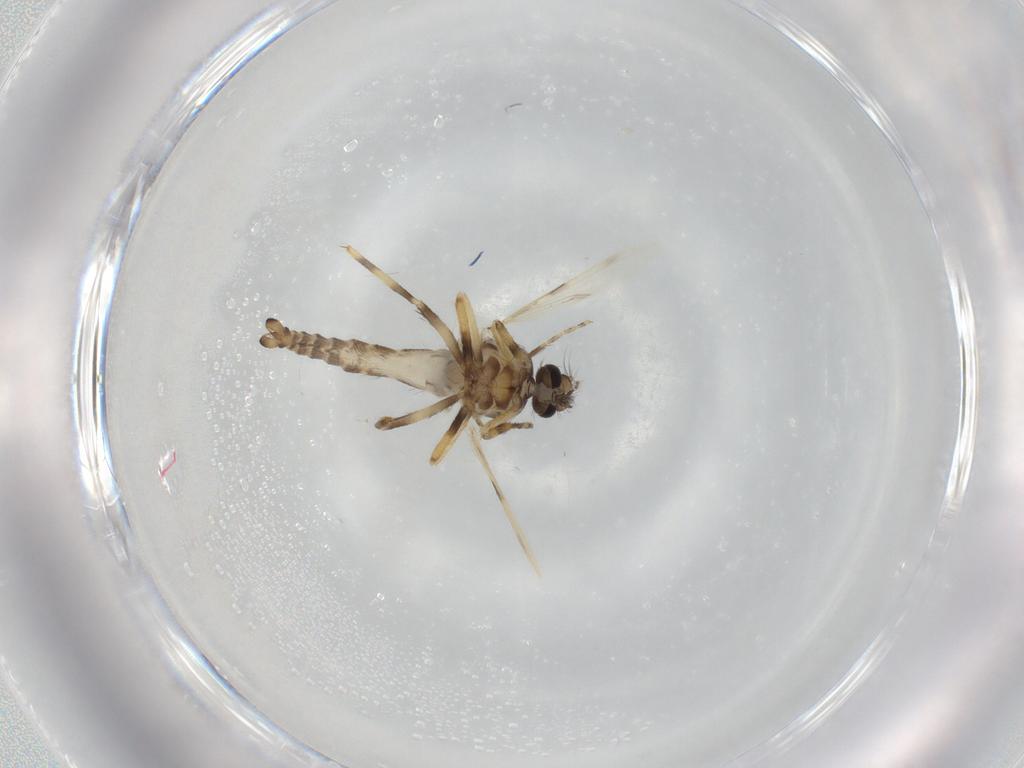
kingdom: Animalia
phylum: Arthropoda
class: Insecta
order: Diptera
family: Ceratopogonidae
